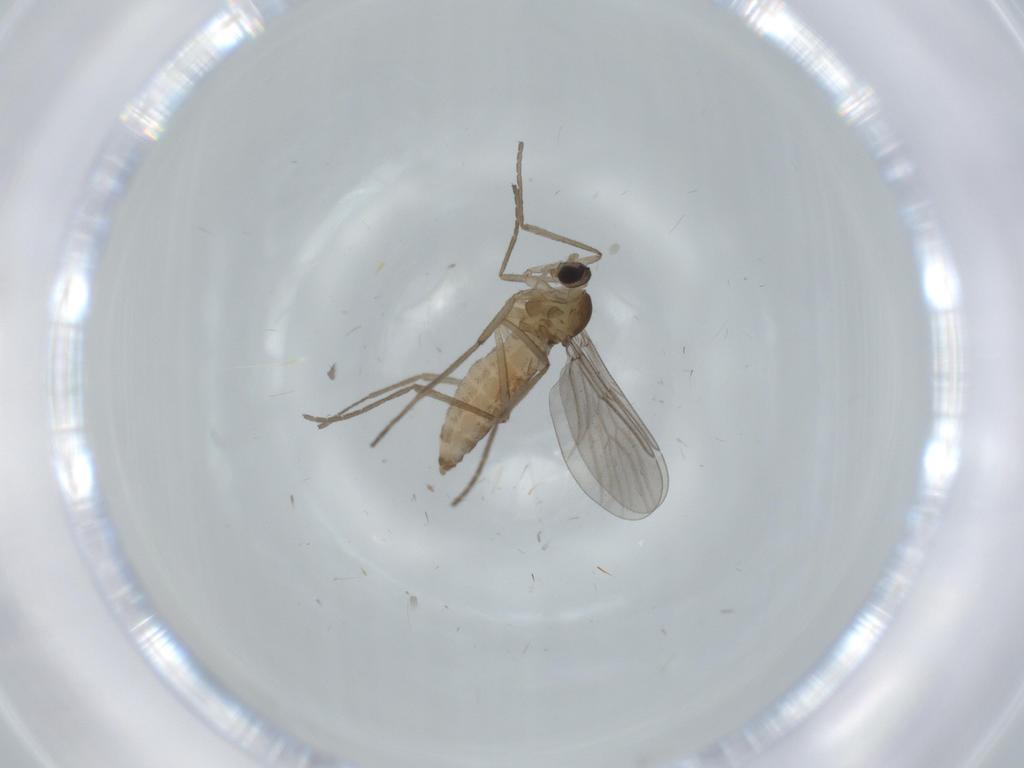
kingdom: Animalia
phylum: Arthropoda
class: Insecta
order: Diptera
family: Cecidomyiidae
